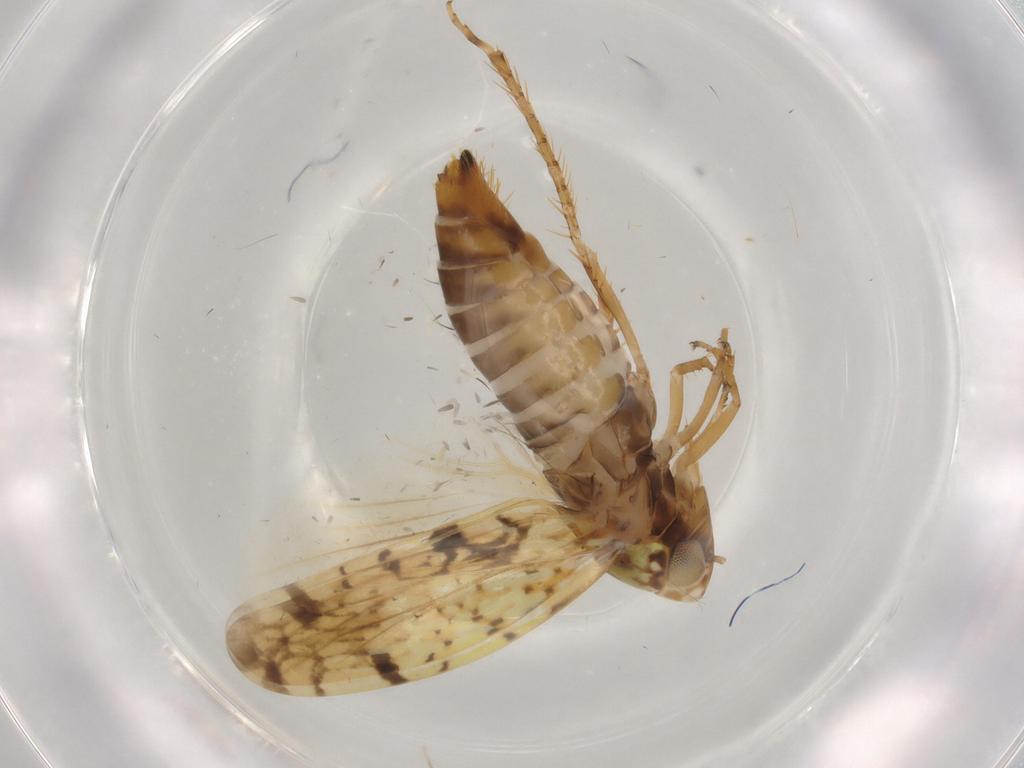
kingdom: Animalia
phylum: Arthropoda
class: Insecta
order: Hemiptera
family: Cicadellidae
